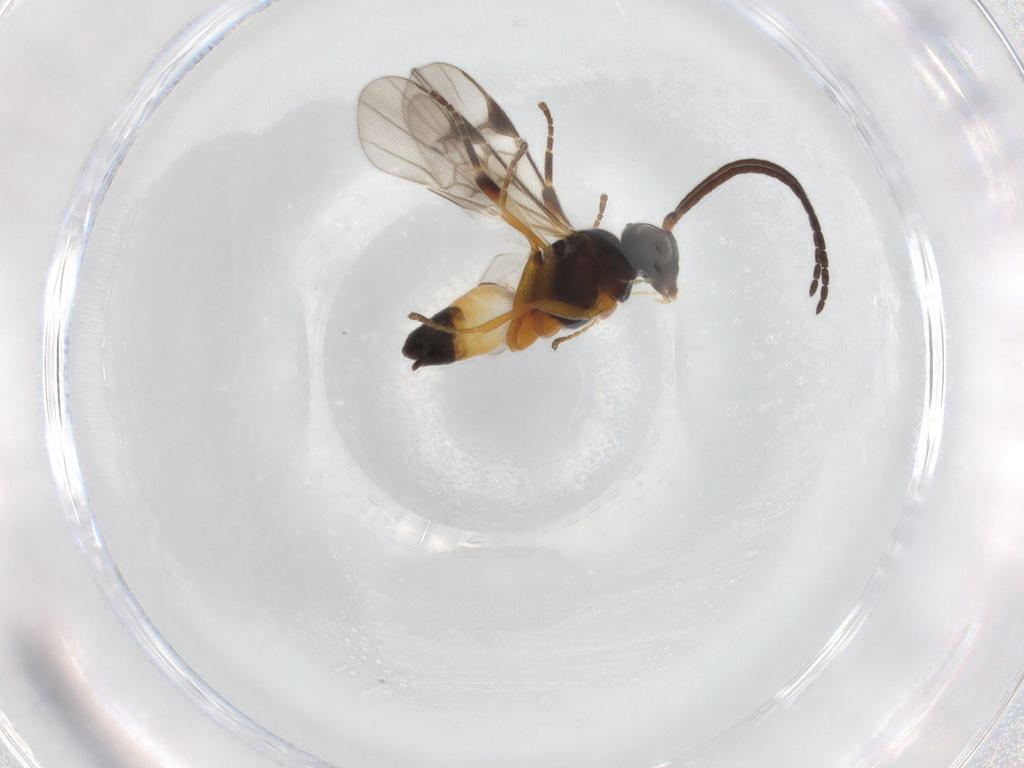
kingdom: Animalia
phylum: Arthropoda
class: Insecta
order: Hymenoptera
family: Braconidae
